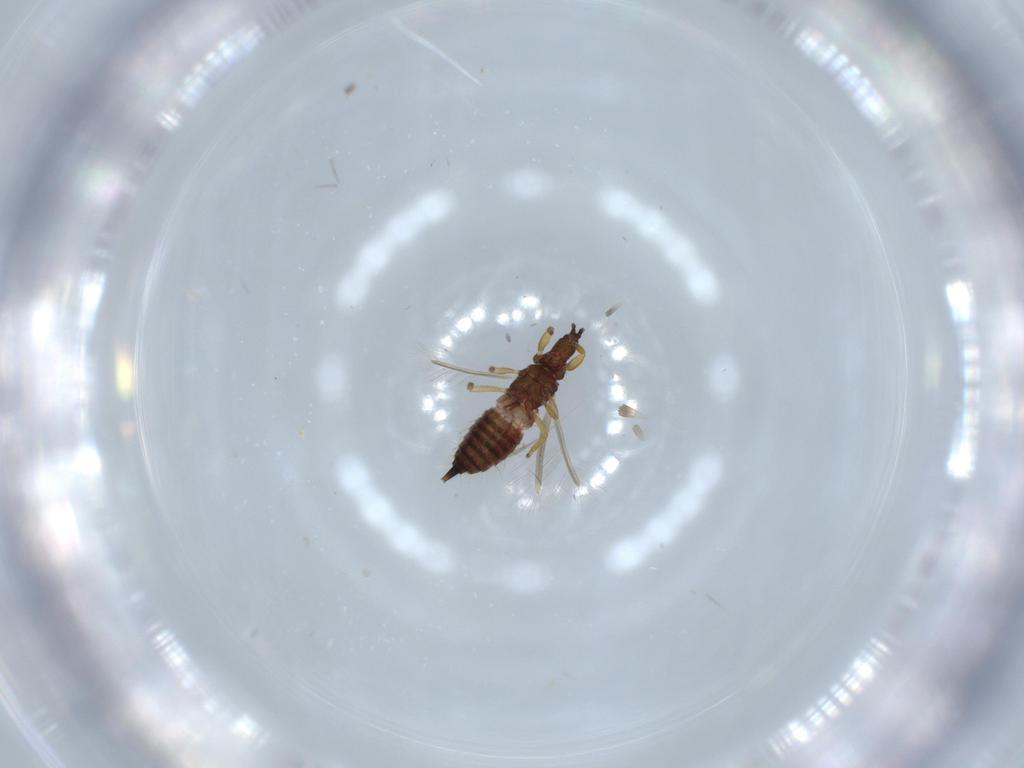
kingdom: Animalia
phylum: Arthropoda
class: Insecta
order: Thysanoptera
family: Phlaeothripidae
